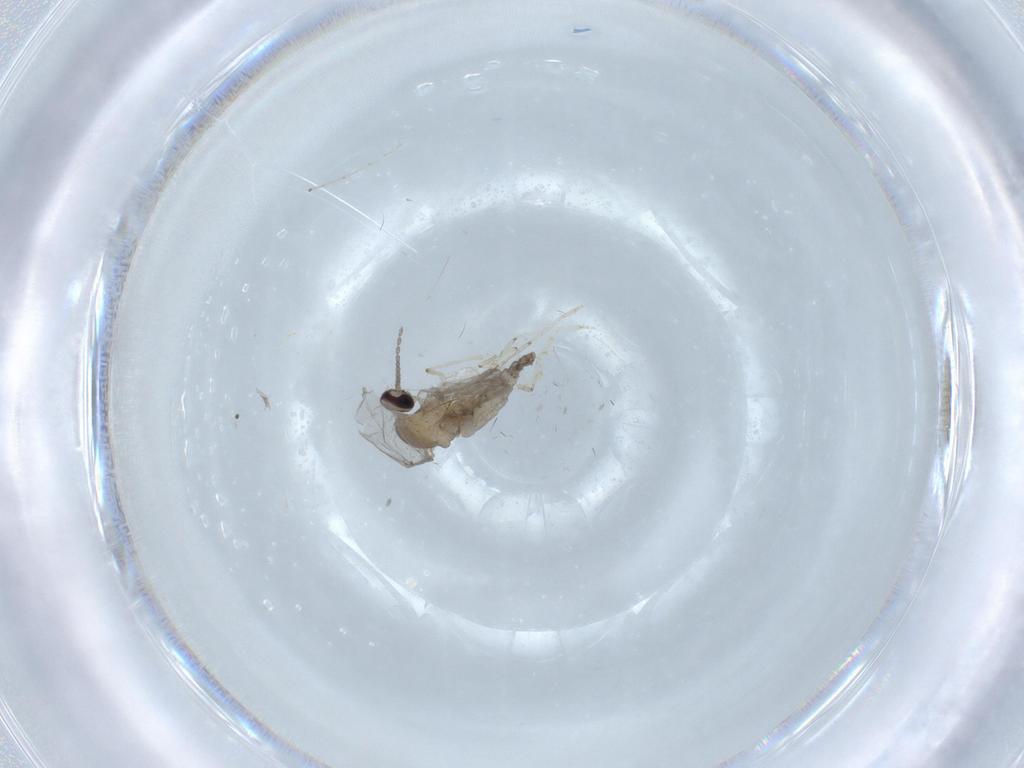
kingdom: Animalia
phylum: Arthropoda
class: Insecta
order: Diptera
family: Cecidomyiidae
